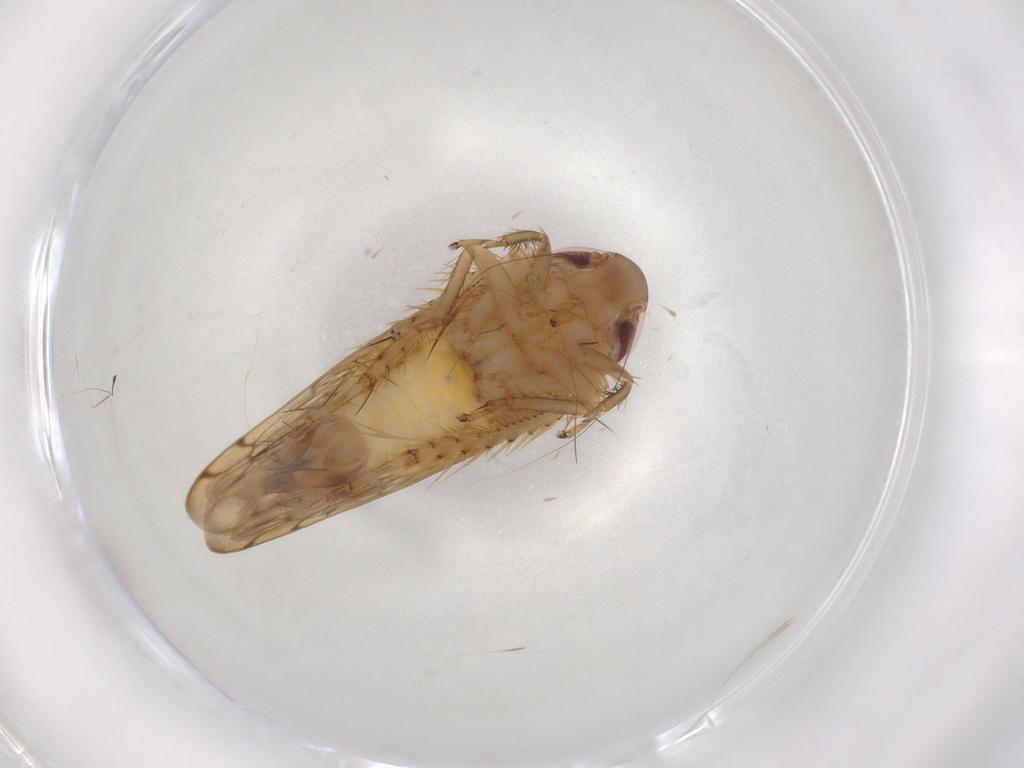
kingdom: Animalia
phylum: Arthropoda
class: Insecta
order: Hemiptera
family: Cicadellidae
